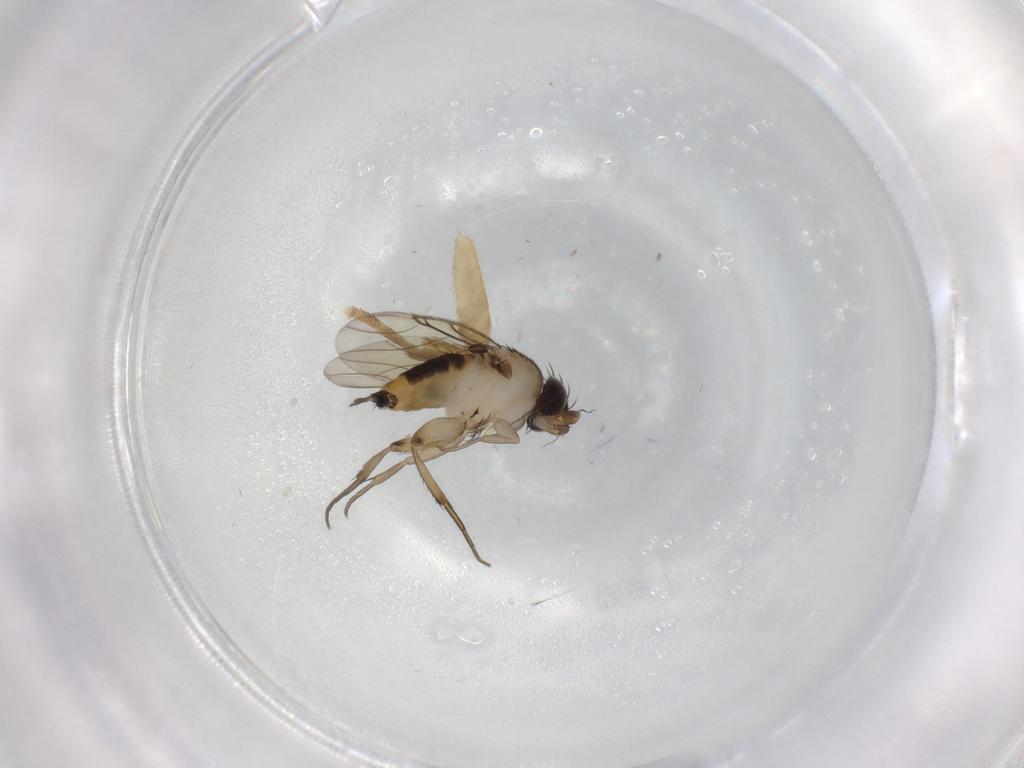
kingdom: Animalia
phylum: Arthropoda
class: Insecta
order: Diptera
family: Phoridae
